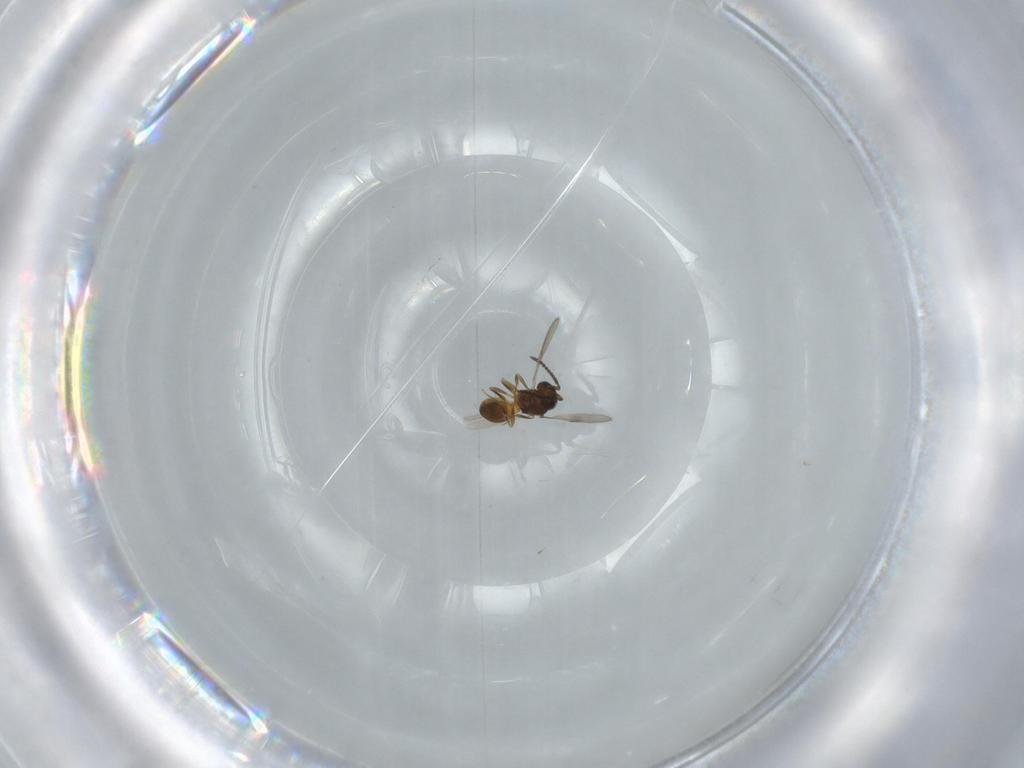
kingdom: Animalia
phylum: Arthropoda
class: Insecta
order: Hymenoptera
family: Scelionidae
